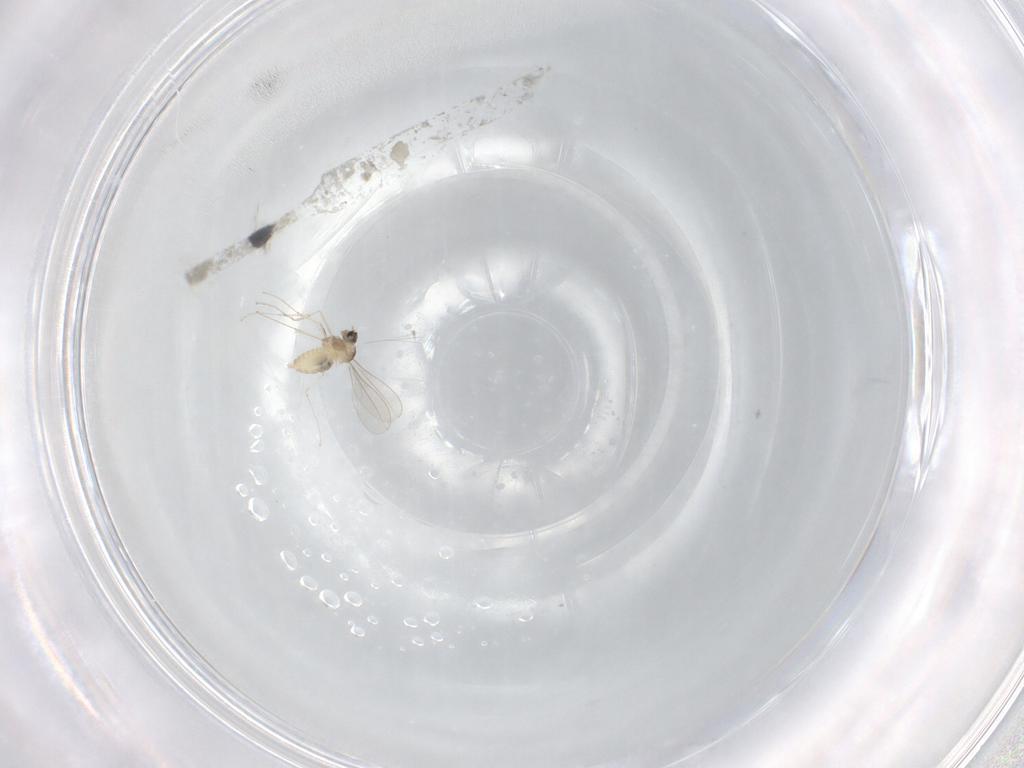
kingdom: Animalia
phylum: Arthropoda
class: Insecta
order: Diptera
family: Cecidomyiidae
